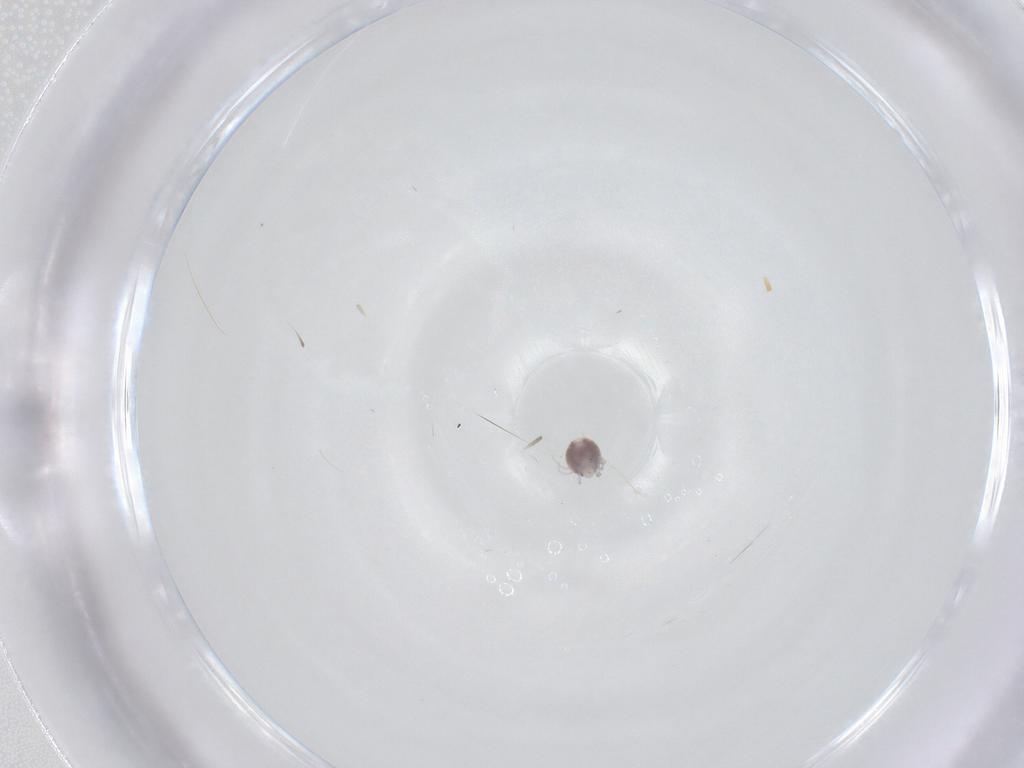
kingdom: Animalia
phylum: Arthropoda
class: Arachnida
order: Trombidiformes
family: Pionidae
